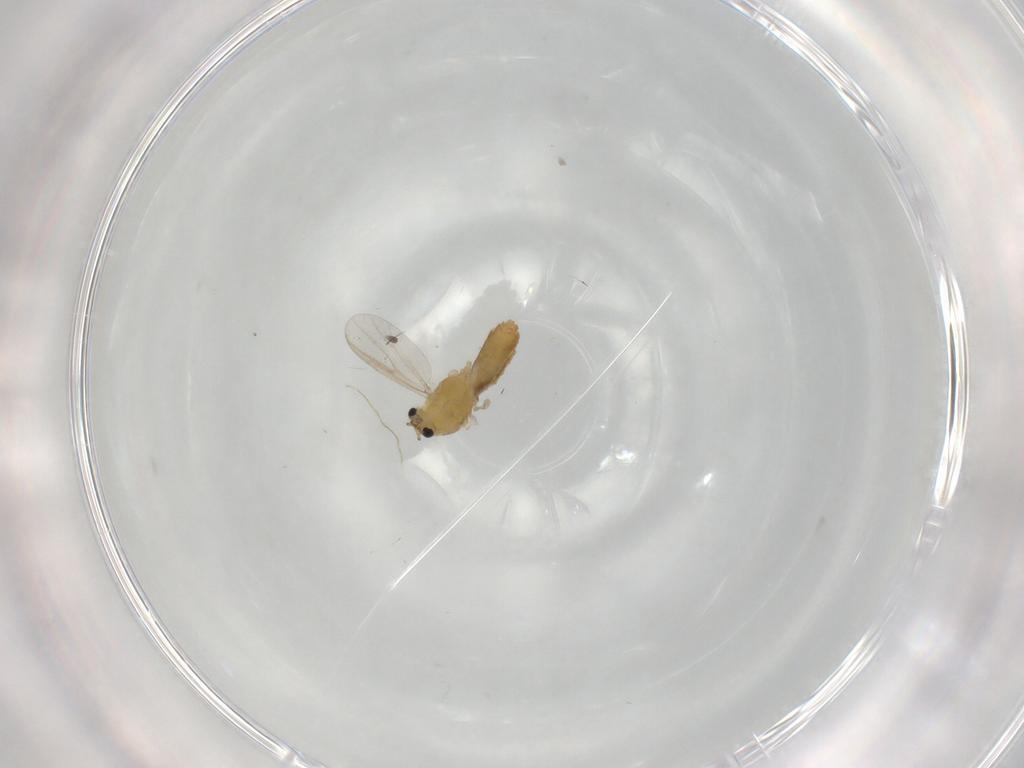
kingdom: Animalia
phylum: Arthropoda
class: Insecta
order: Diptera
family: Chironomidae
